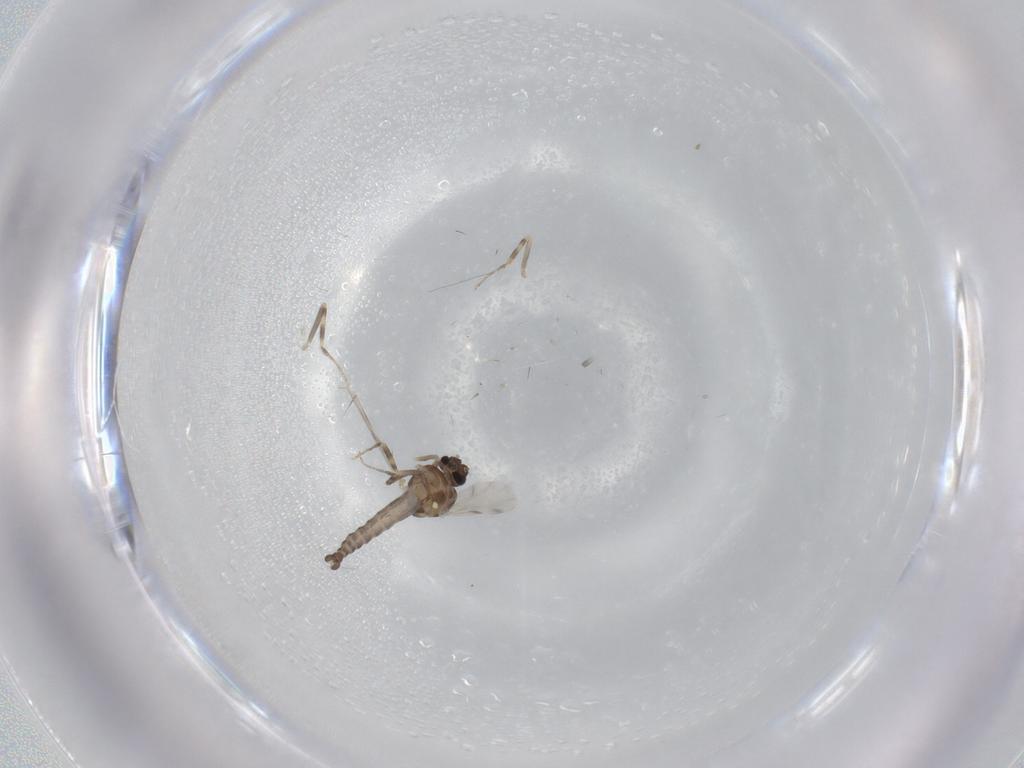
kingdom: Animalia
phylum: Arthropoda
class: Insecta
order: Diptera
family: Ceratopogonidae
